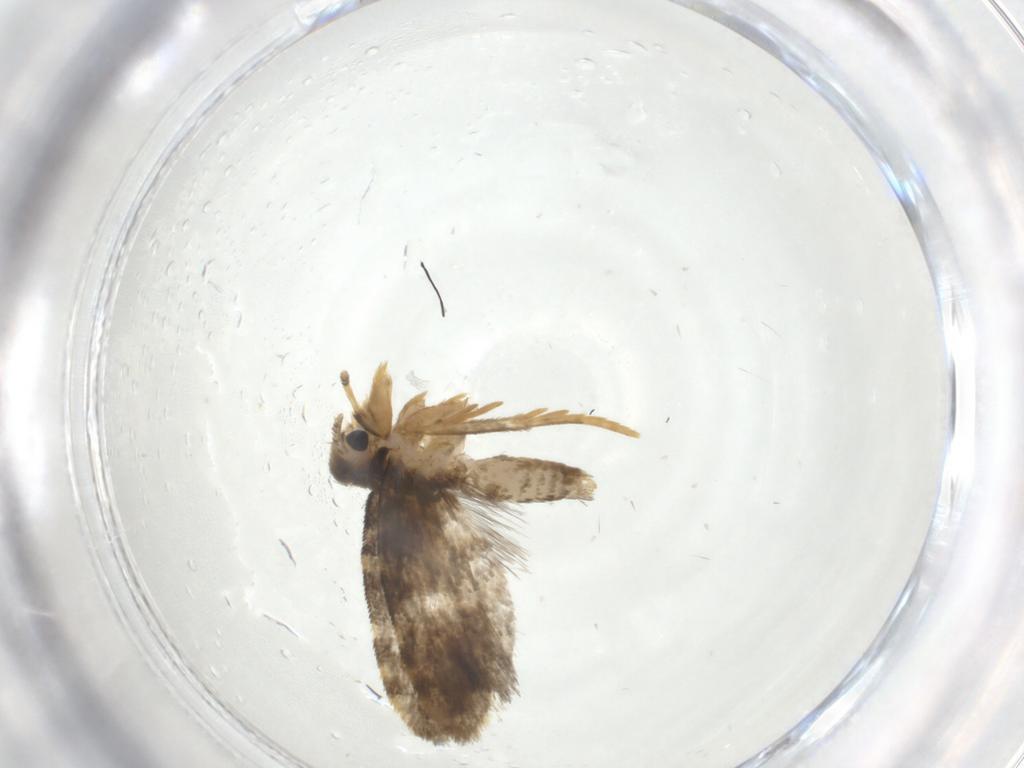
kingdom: Animalia
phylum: Arthropoda
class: Insecta
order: Lepidoptera
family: Psychidae
